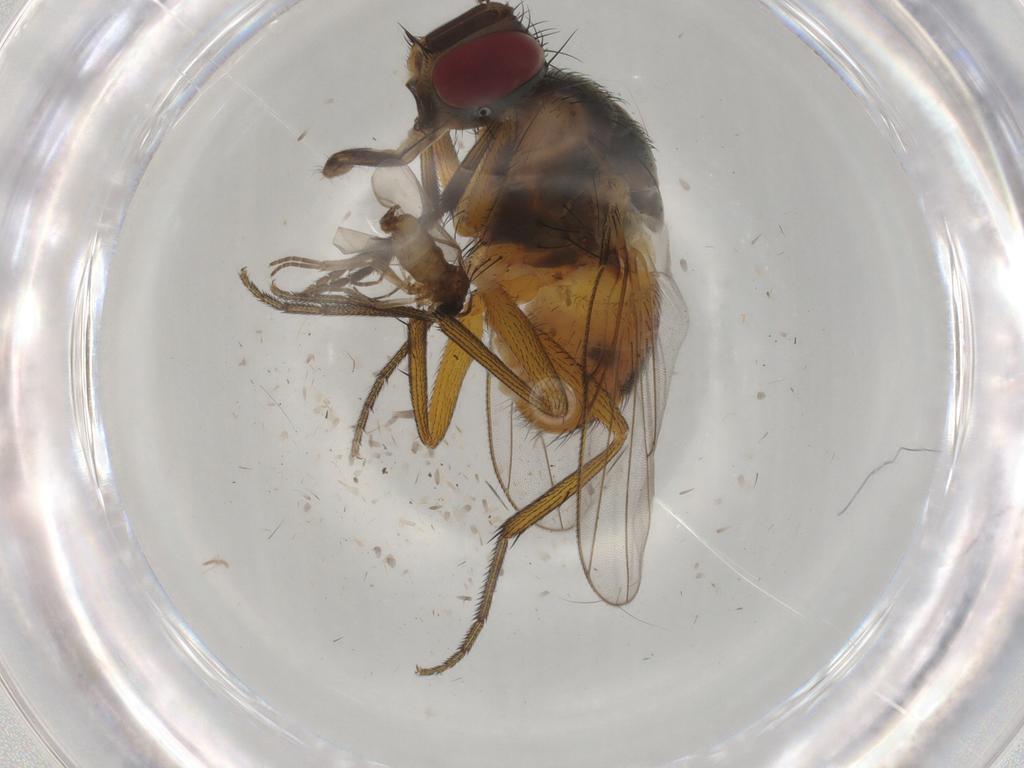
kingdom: Animalia
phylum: Arthropoda
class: Insecta
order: Diptera
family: Muscidae
